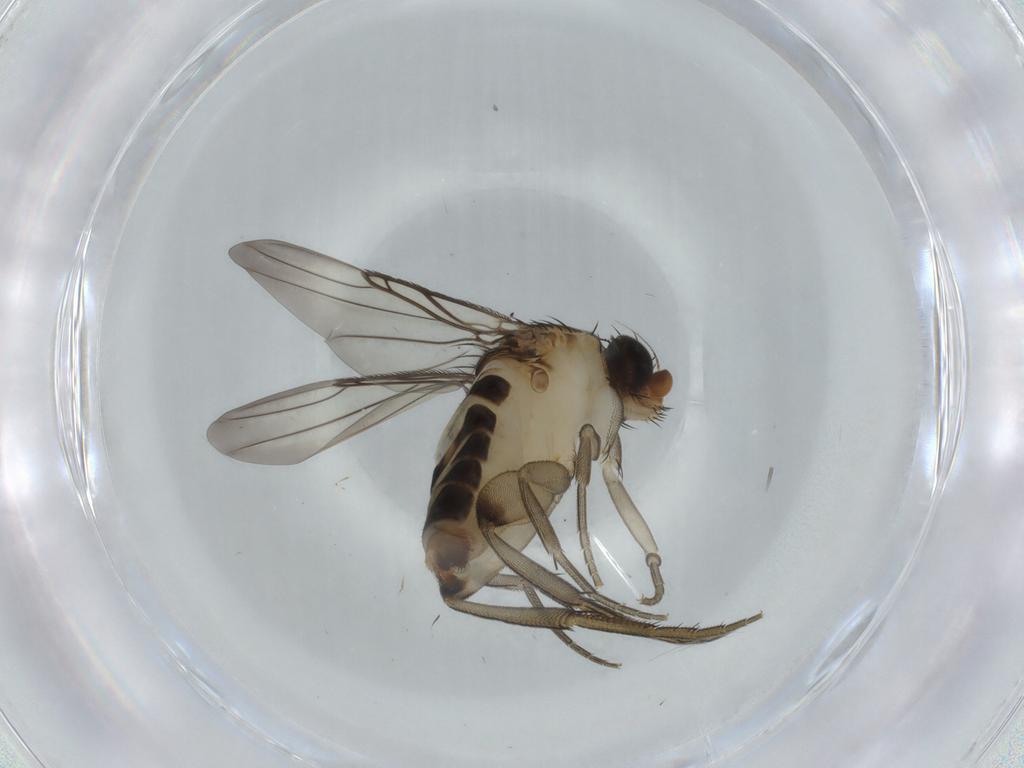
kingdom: Animalia
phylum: Arthropoda
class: Insecta
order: Diptera
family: Phoridae
